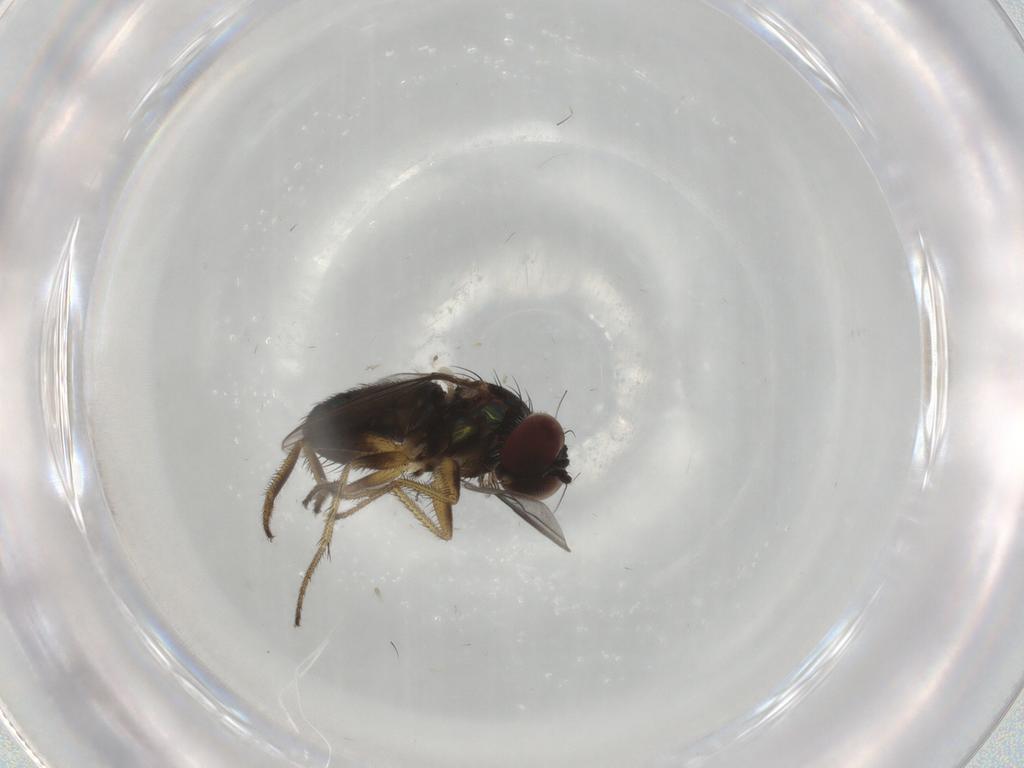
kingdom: Animalia
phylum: Arthropoda
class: Insecta
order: Diptera
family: Dolichopodidae
